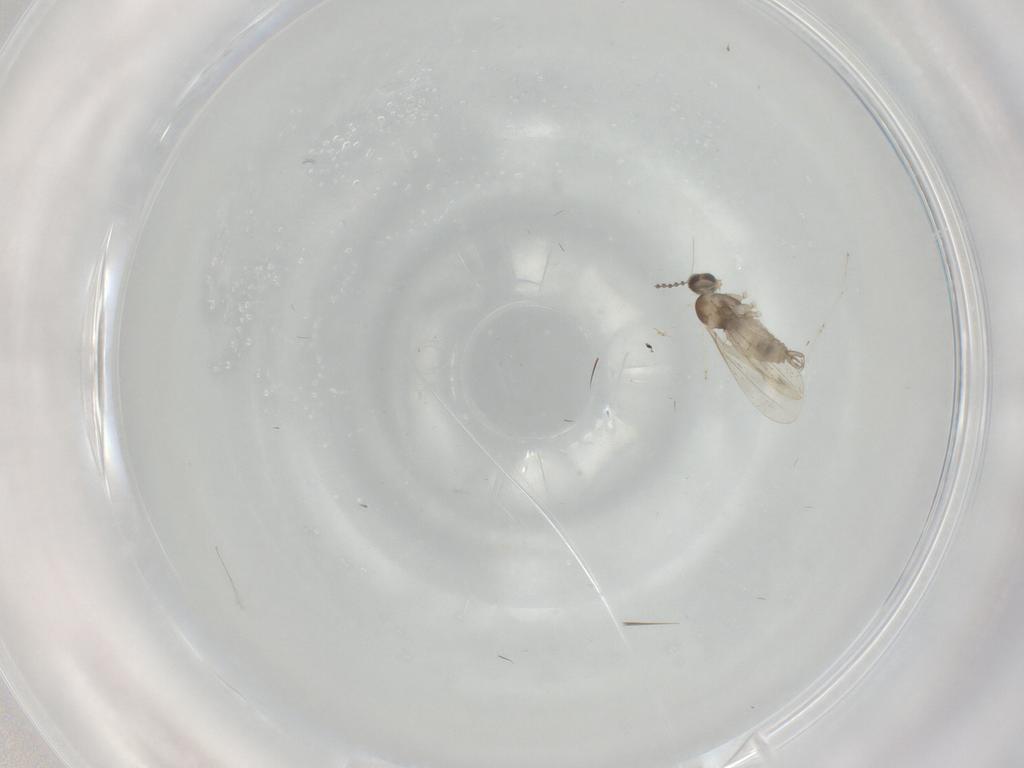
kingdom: Animalia
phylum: Arthropoda
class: Insecta
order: Diptera
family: Cecidomyiidae
